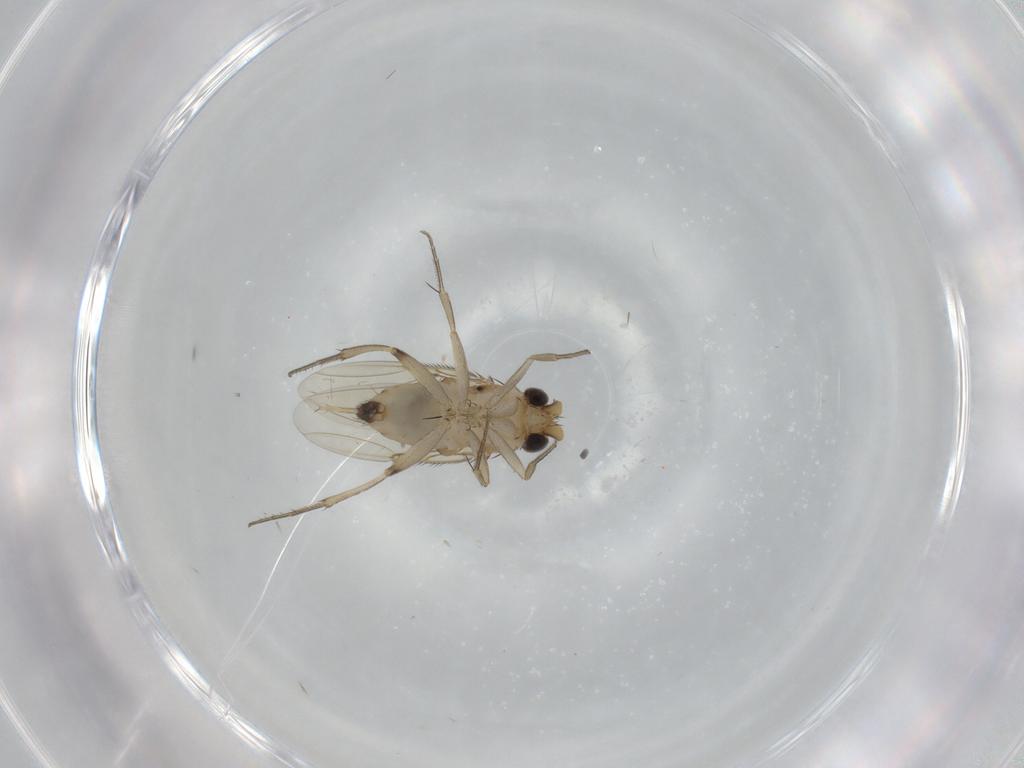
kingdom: Animalia
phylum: Arthropoda
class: Insecta
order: Diptera
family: Phoridae
